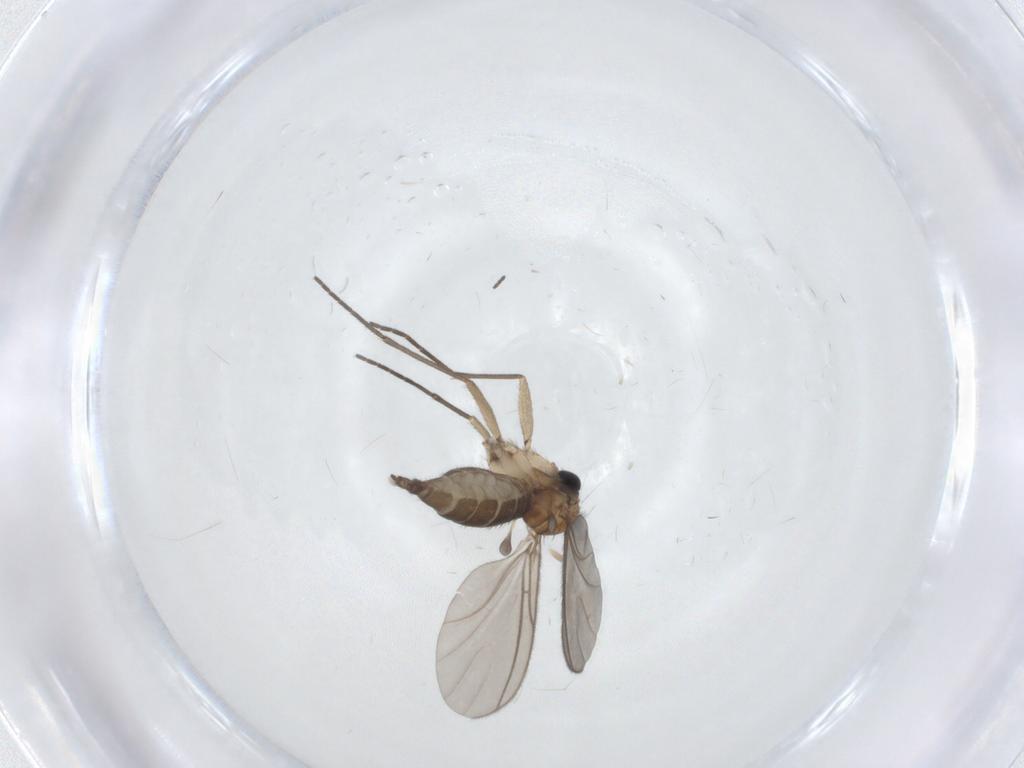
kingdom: Animalia
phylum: Arthropoda
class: Insecta
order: Diptera
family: Sciaridae
